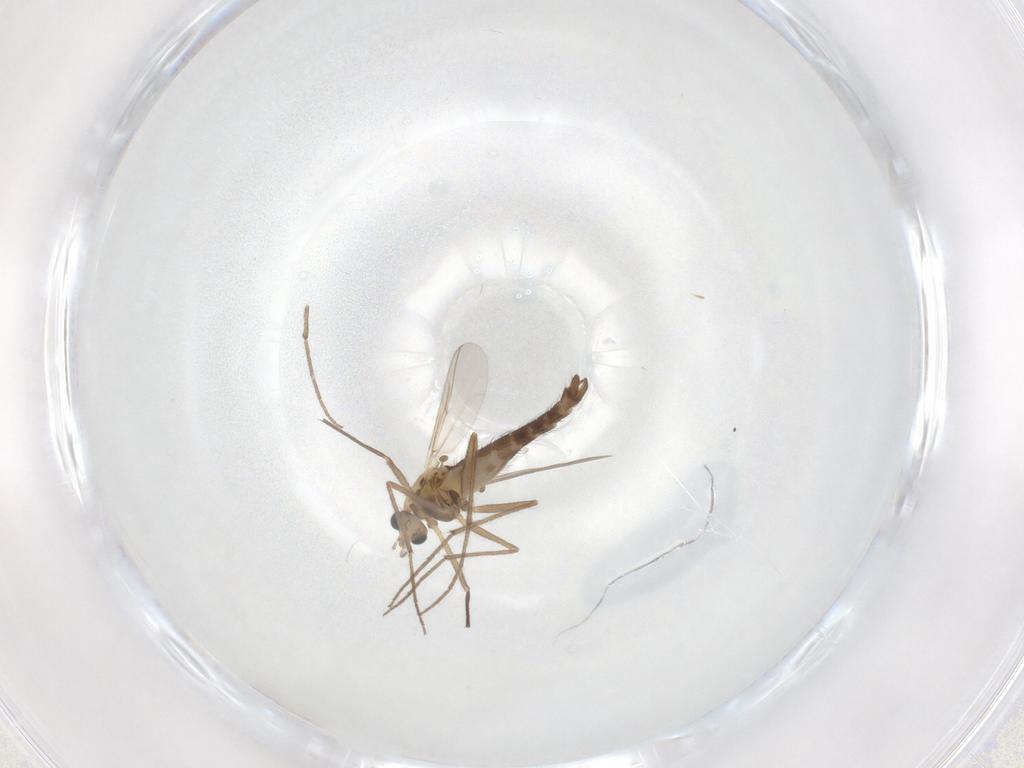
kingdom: Animalia
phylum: Arthropoda
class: Insecta
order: Diptera
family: Chironomidae
